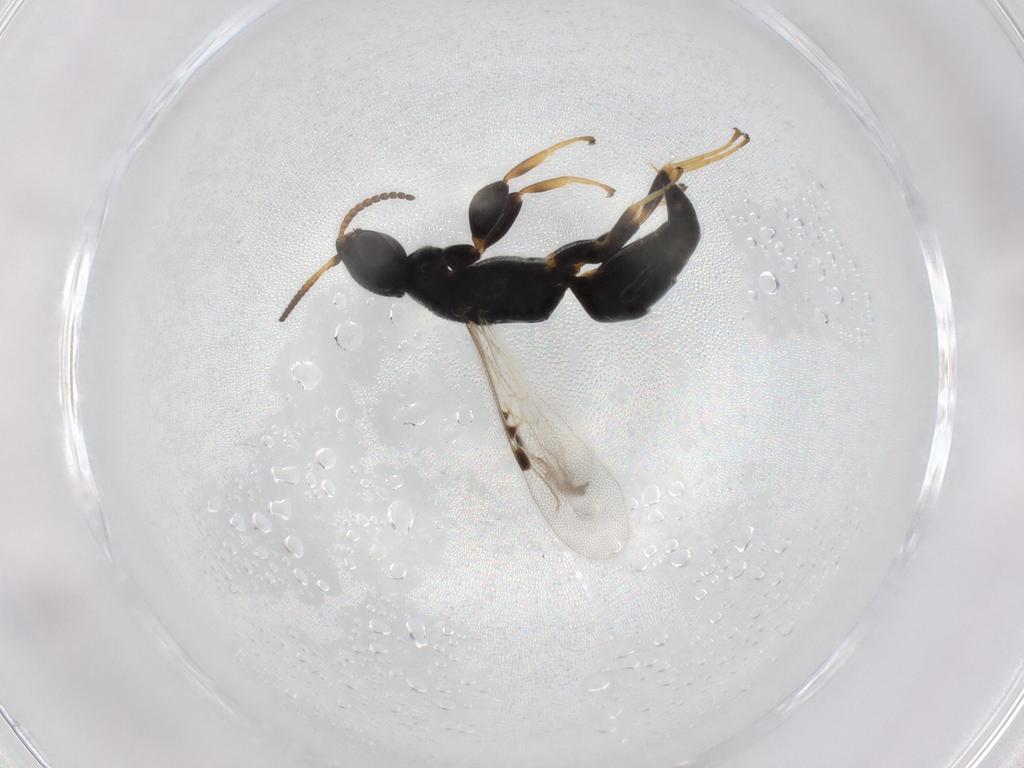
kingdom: Animalia
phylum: Arthropoda
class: Insecta
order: Hymenoptera
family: Bethylidae
